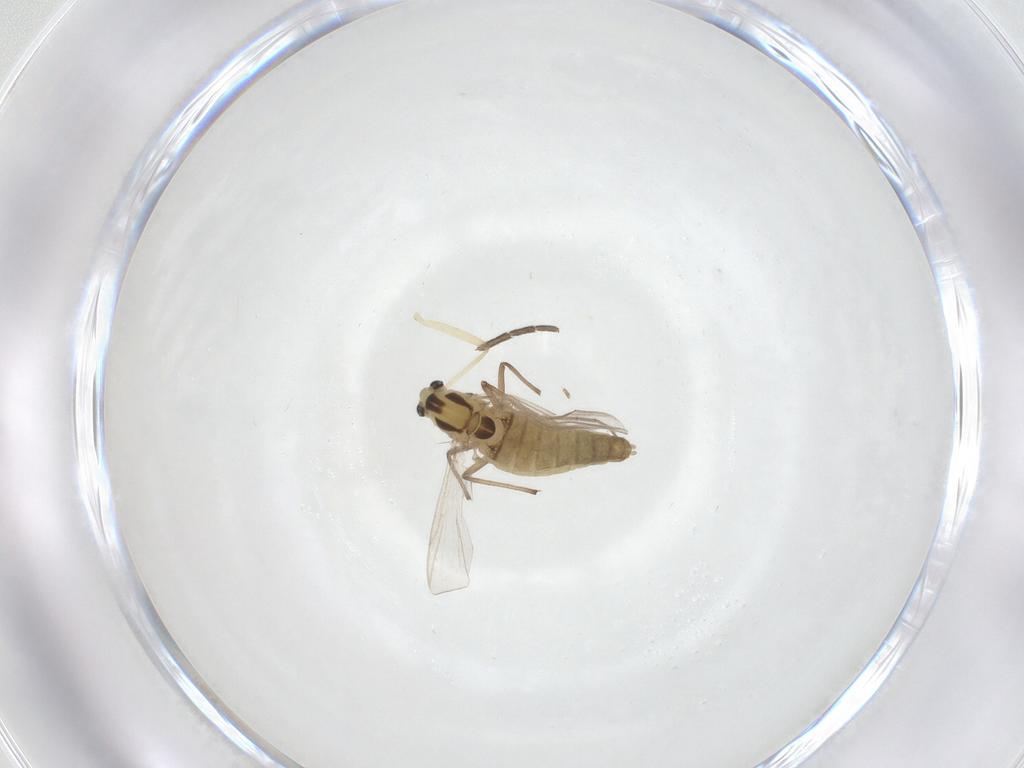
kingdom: Animalia
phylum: Arthropoda
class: Insecta
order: Diptera
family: Chironomidae
